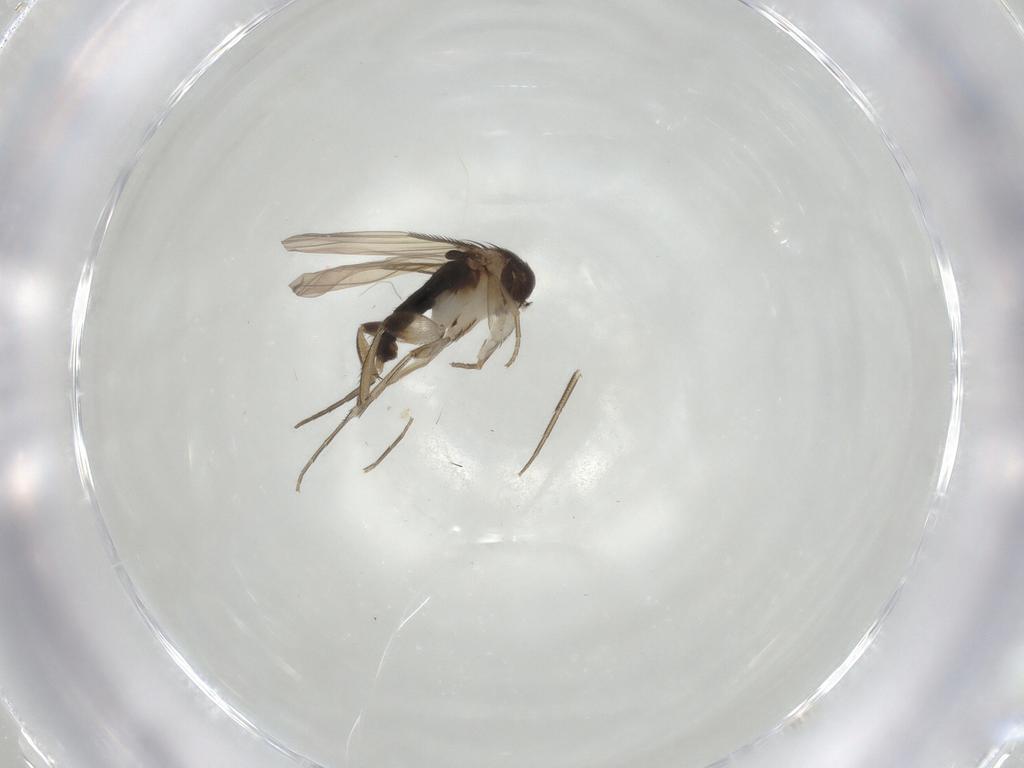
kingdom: Animalia
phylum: Arthropoda
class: Insecta
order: Diptera
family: Phoridae
